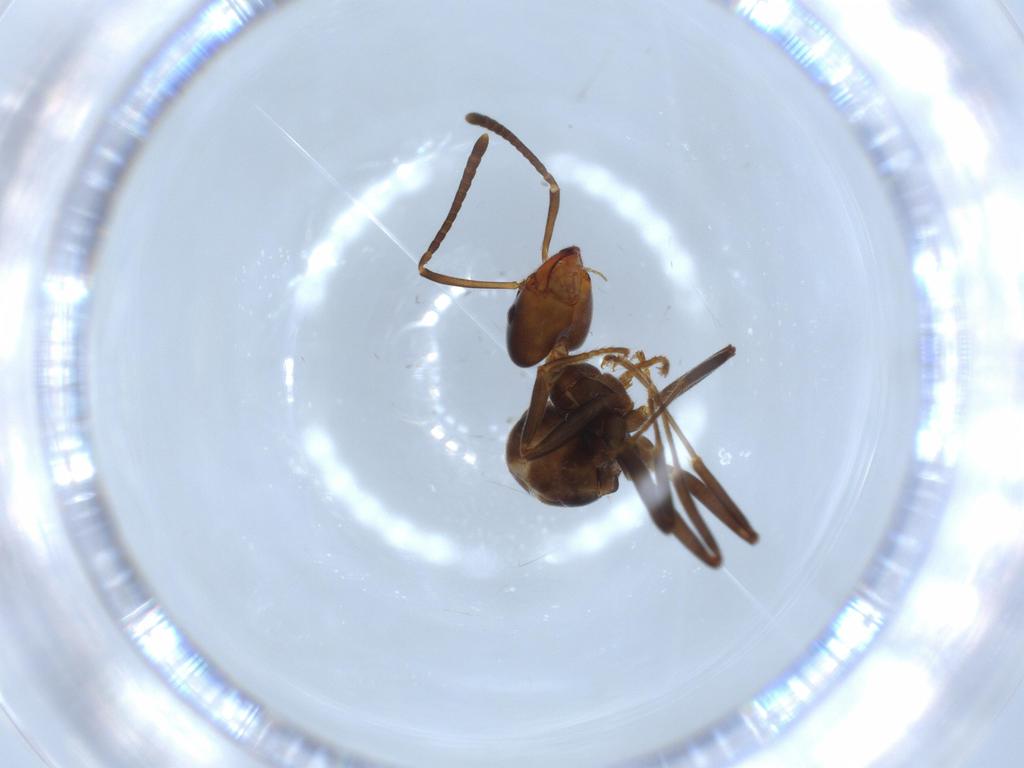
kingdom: Animalia
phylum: Arthropoda
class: Insecta
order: Hymenoptera
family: Formicidae
